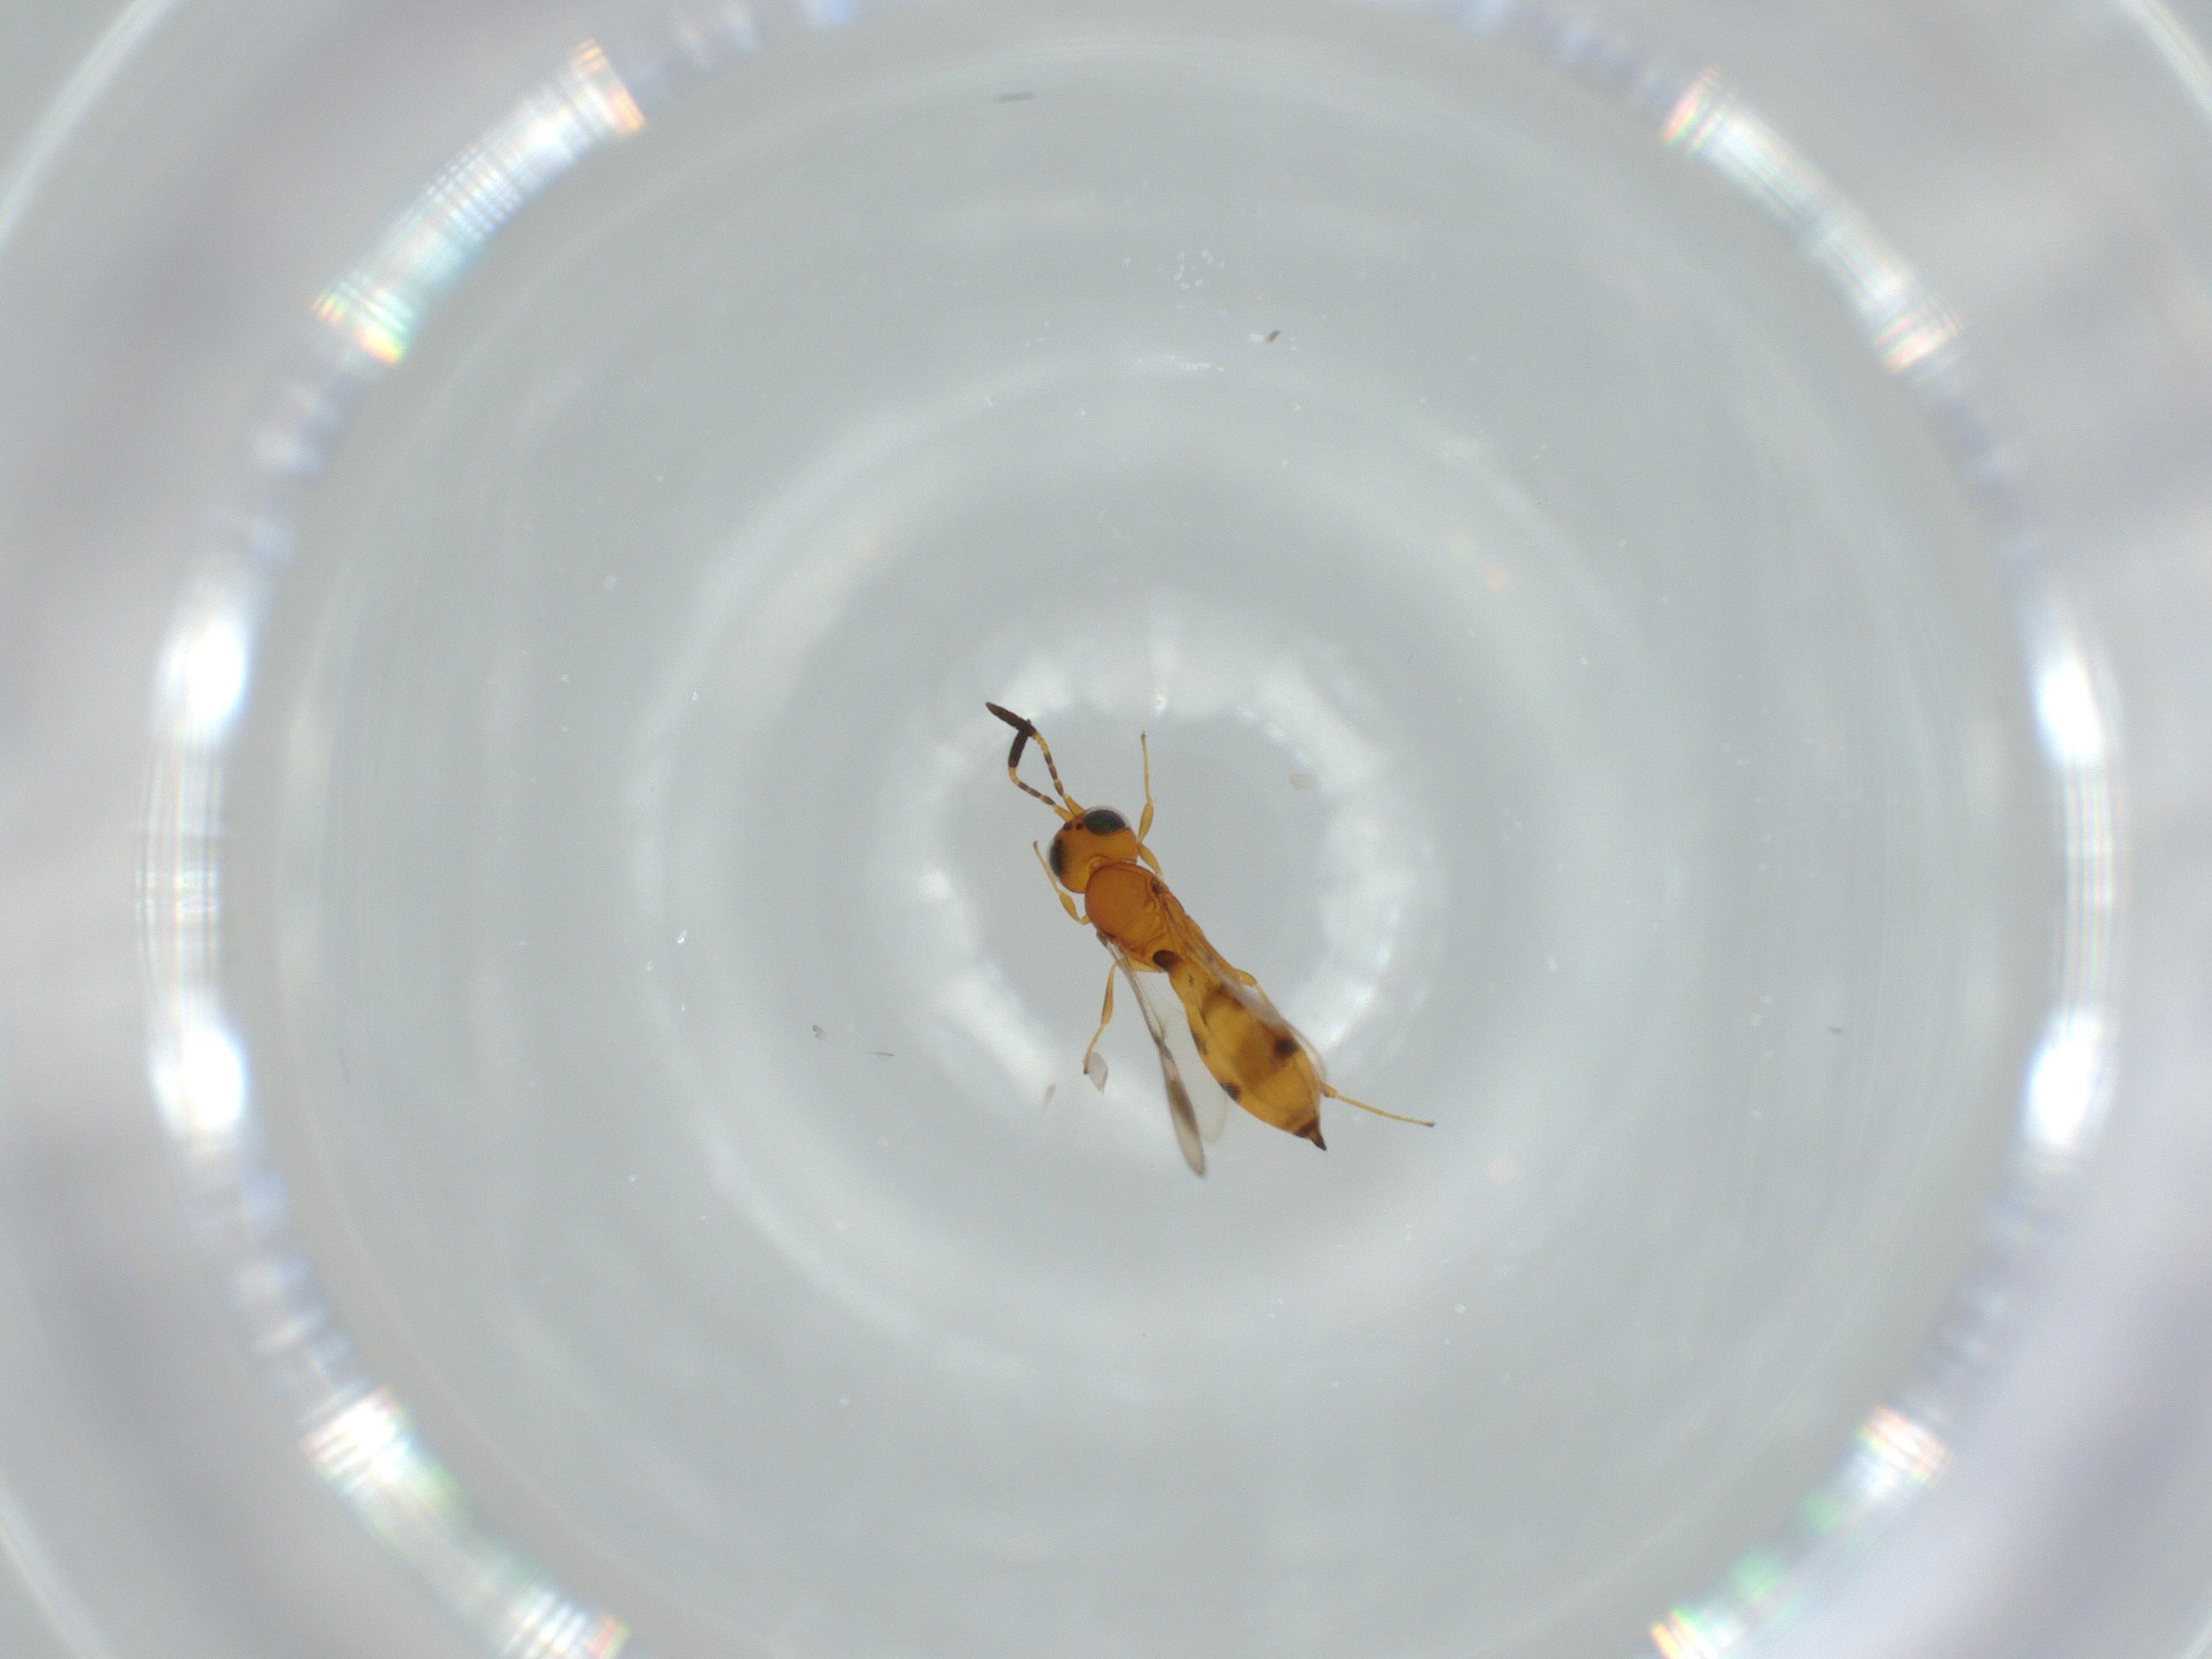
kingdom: Animalia
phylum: Arthropoda
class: Insecta
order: Hymenoptera
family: Scelionidae
